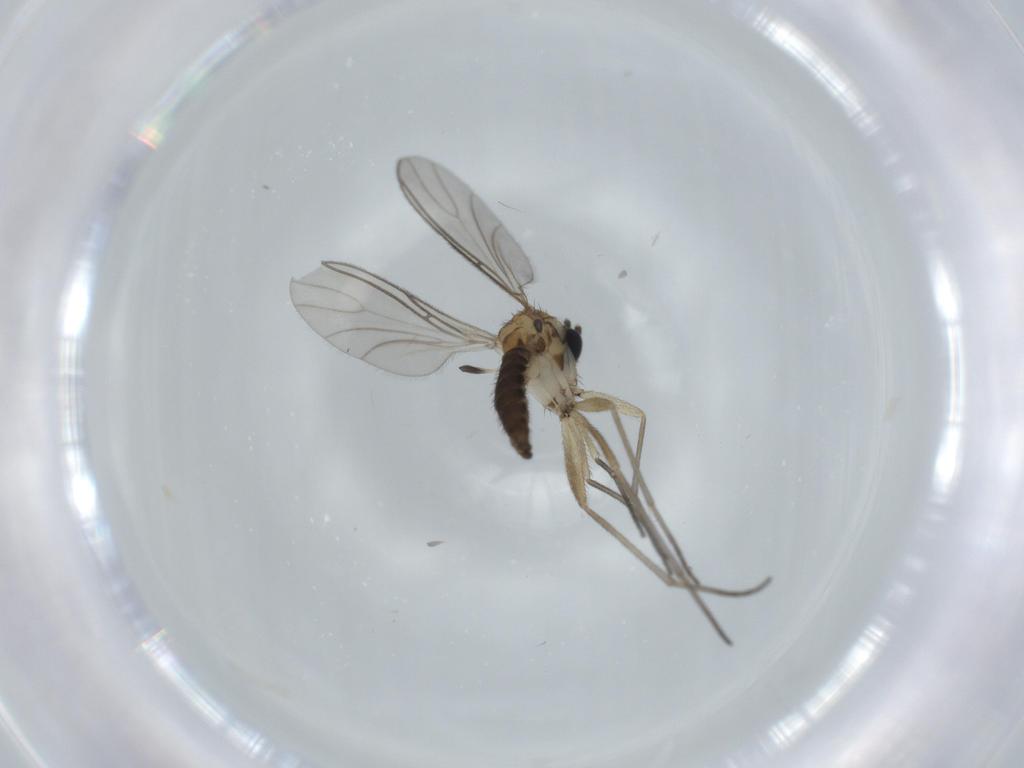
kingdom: Animalia
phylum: Arthropoda
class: Insecta
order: Diptera
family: Sciaridae
